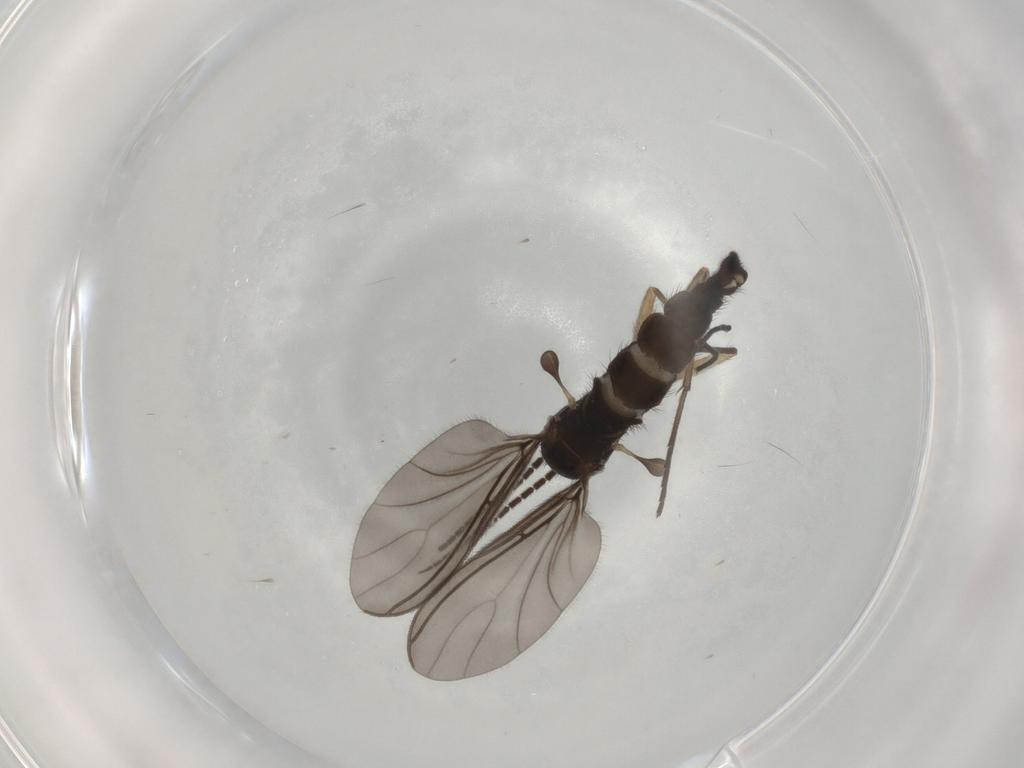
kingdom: Animalia
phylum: Arthropoda
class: Insecta
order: Diptera
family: Sciaridae
